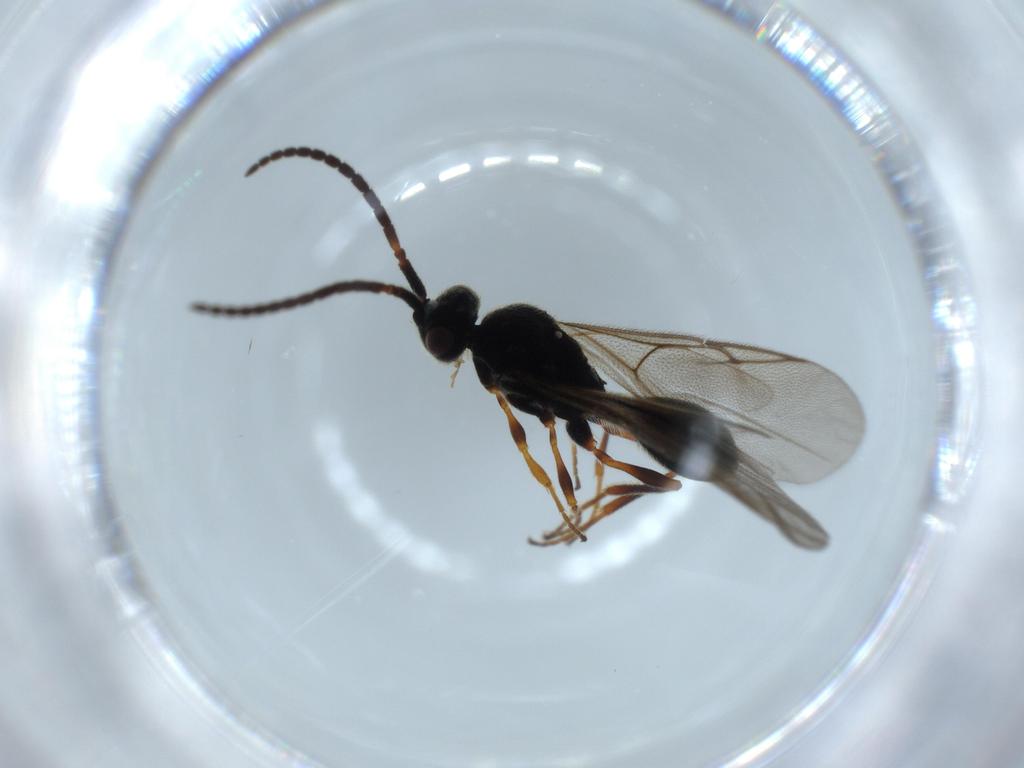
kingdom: Animalia
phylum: Arthropoda
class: Insecta
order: Hymenoptera
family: Diapriidae
